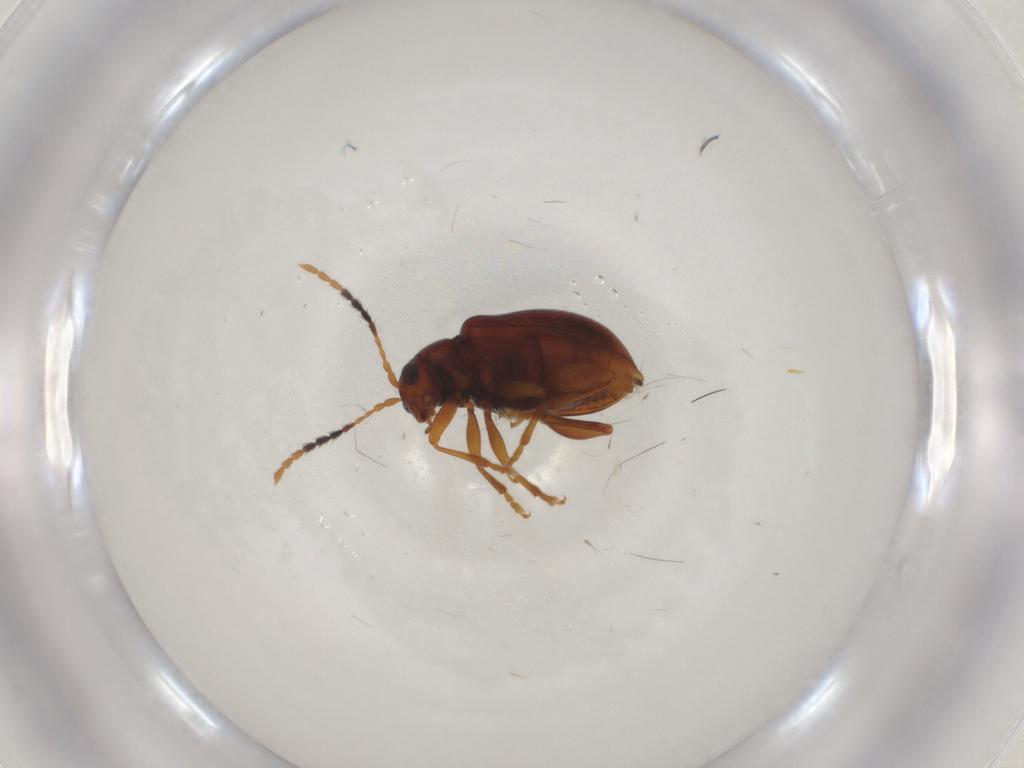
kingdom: Animalia
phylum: Arthropoda
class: Insecta
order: Coleoptera
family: Chrysomelidae
